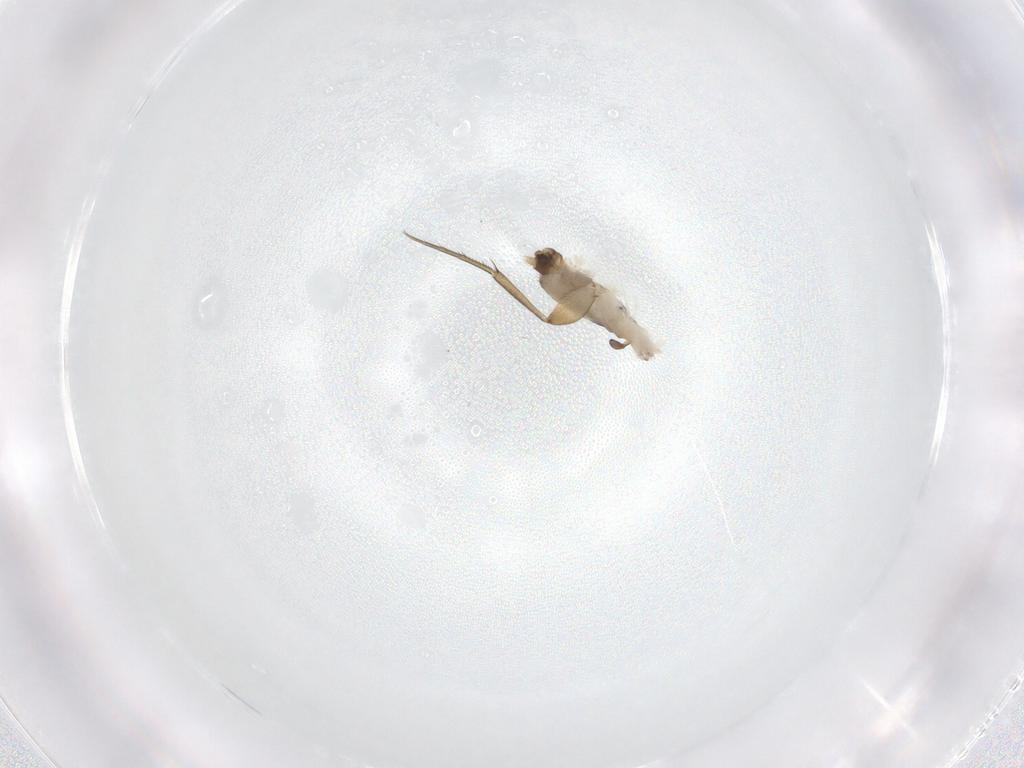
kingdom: Animalia
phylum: Arthropoda
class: Insecta
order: Diptera
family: Phoridae
